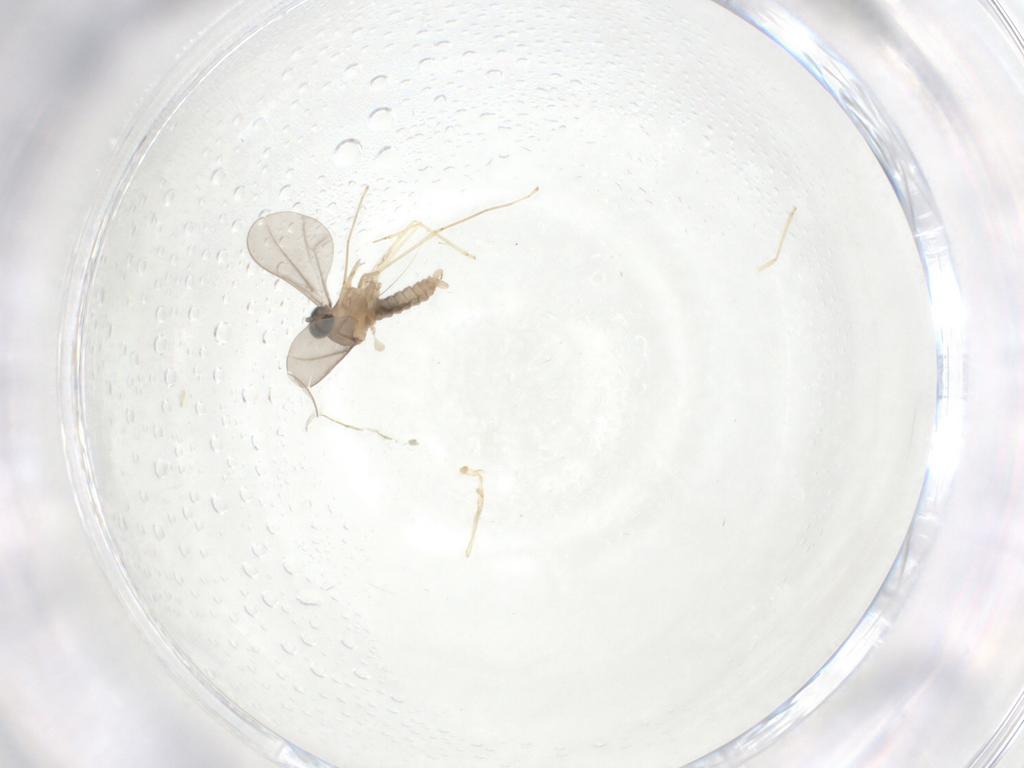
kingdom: Animalia
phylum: Arthropoda
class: Insecta
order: Diptera
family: Cecidomyiidae
